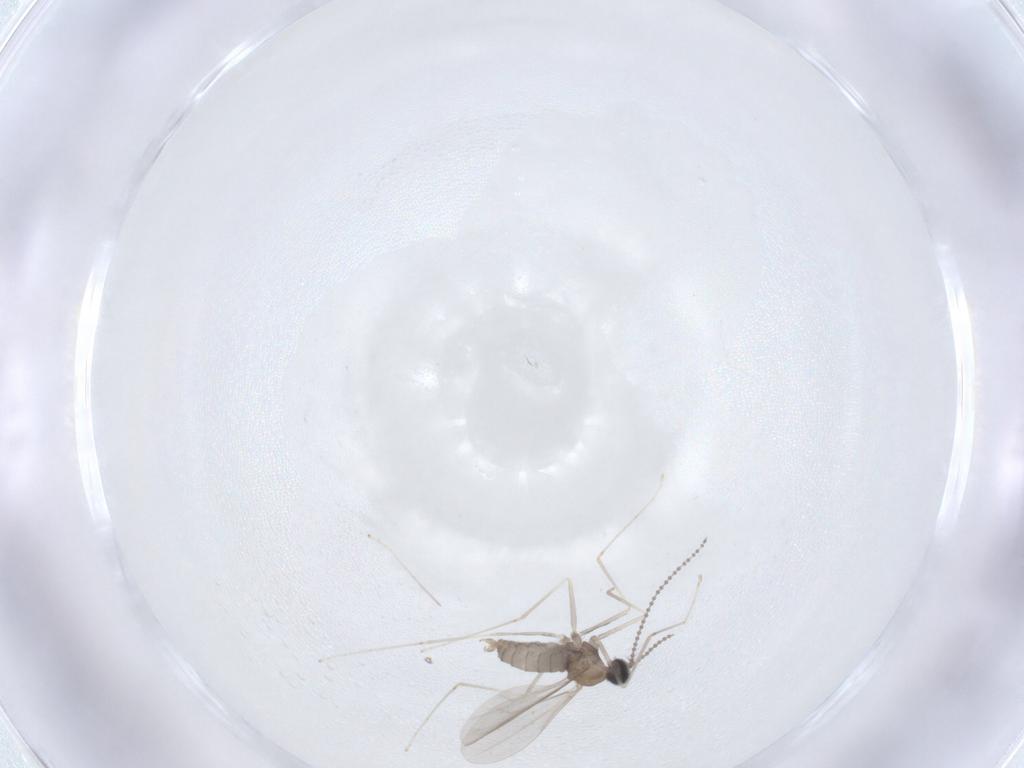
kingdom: Animalia
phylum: Arthropoda
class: Insecta
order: Diptera
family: Cecidomyiidae
